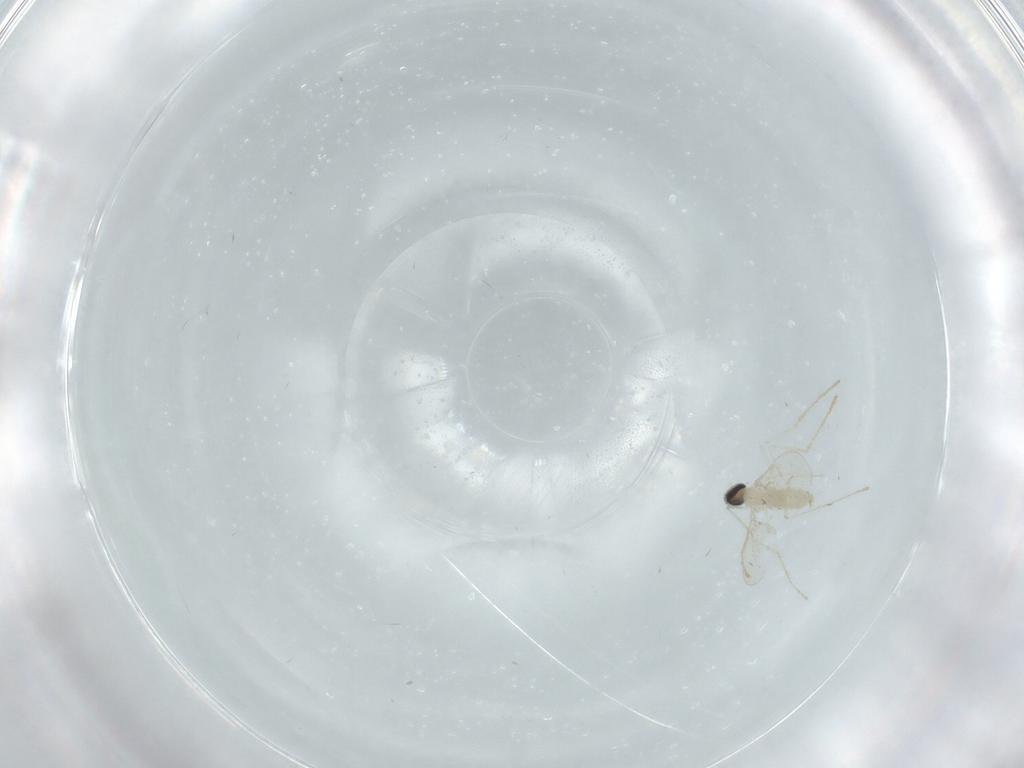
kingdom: Animalia
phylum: Arthropoda
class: Insecta
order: Diptera
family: Cecidomyiidae
